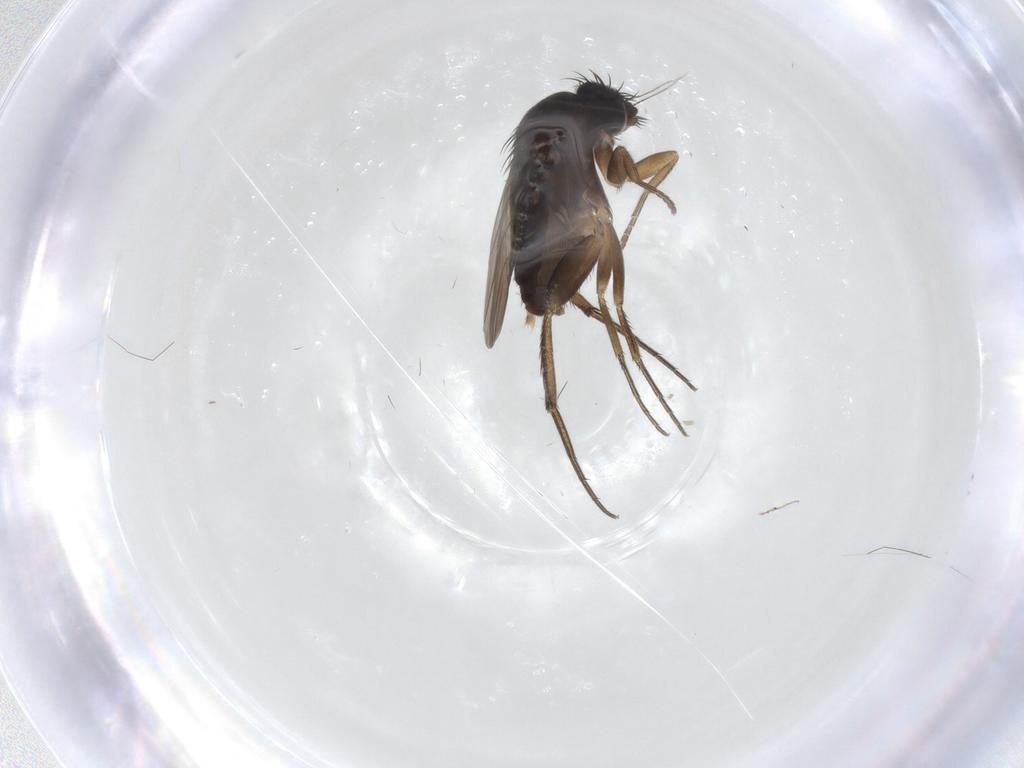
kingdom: Animalia
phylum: Arthropoda
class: Insecta
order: Diptera
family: Phoridae
